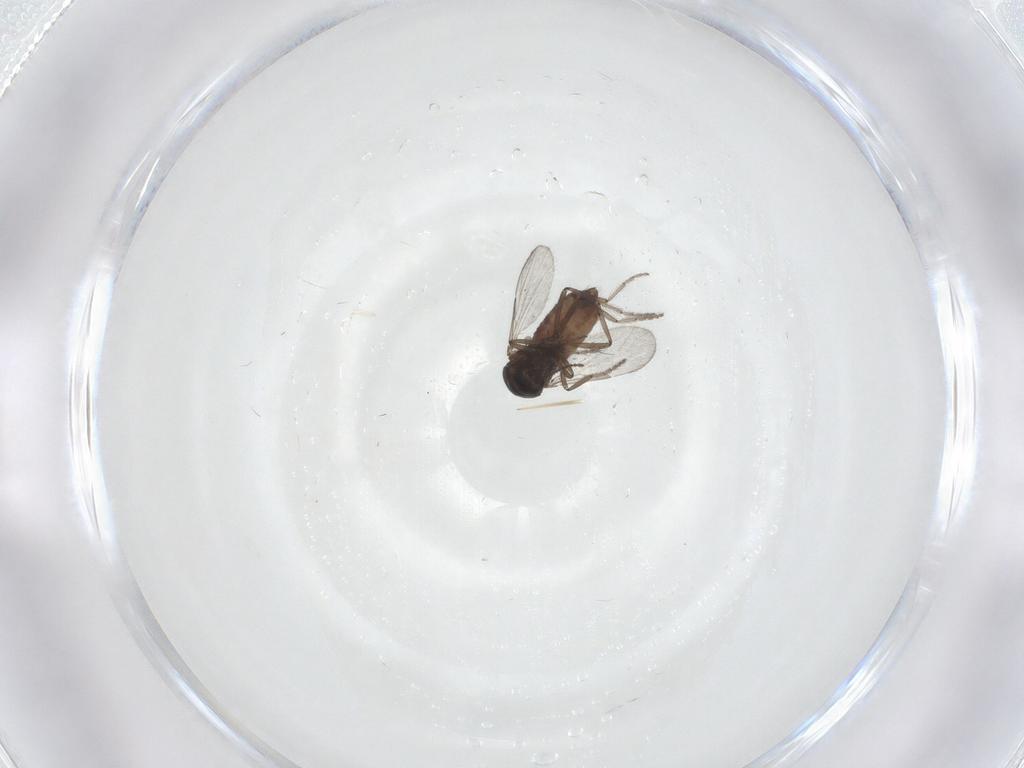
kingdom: Animalia
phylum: Arthropoda
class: Insecta
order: Diptera
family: Ceratopogonidae
